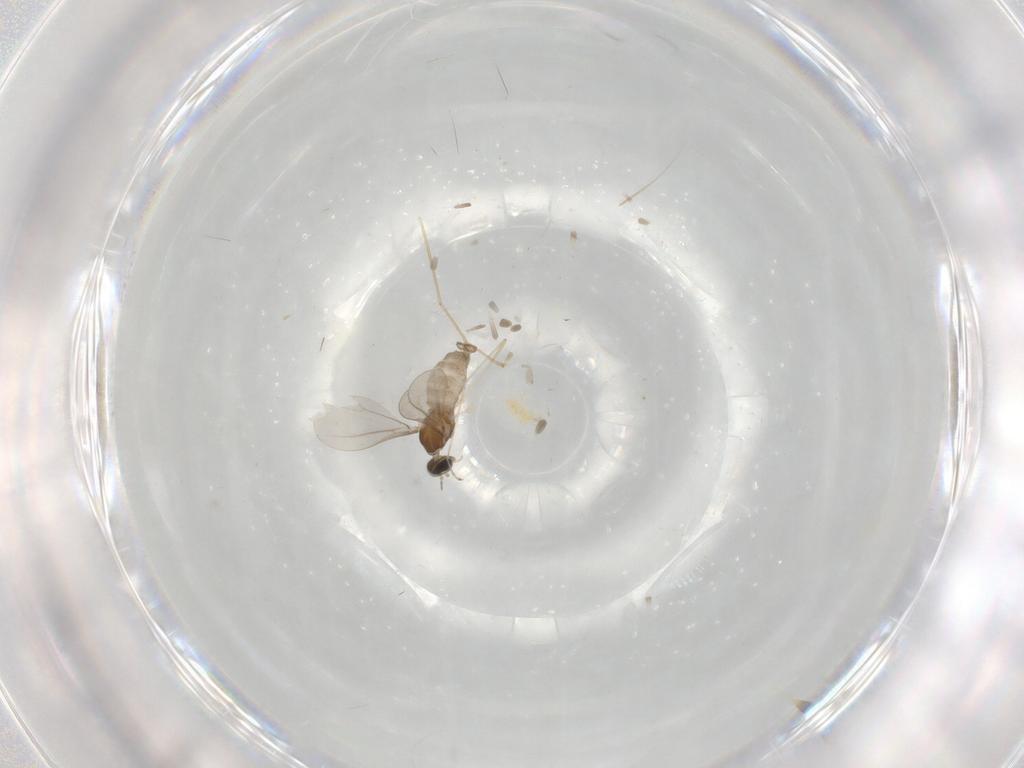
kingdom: Animalia
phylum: Arthropoda
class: Insecta
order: Diptera
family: Cecidomyiidae
